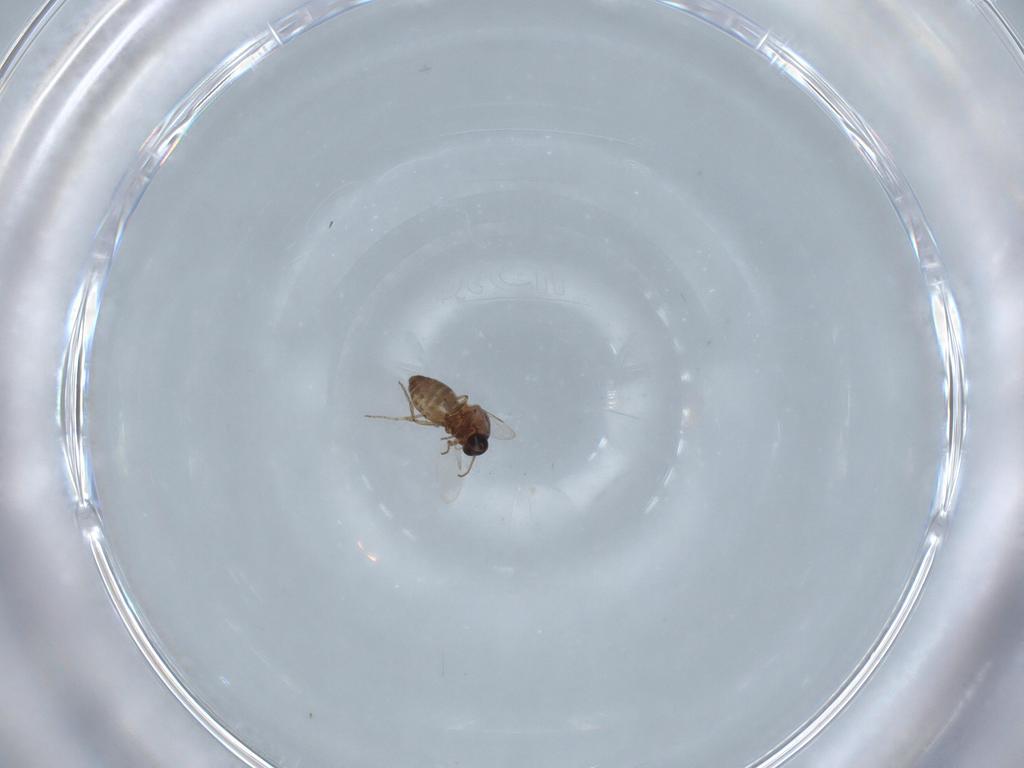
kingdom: Animalia
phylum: Arthropoda
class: Insecta
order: Diptera
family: Ceratopogonidae
